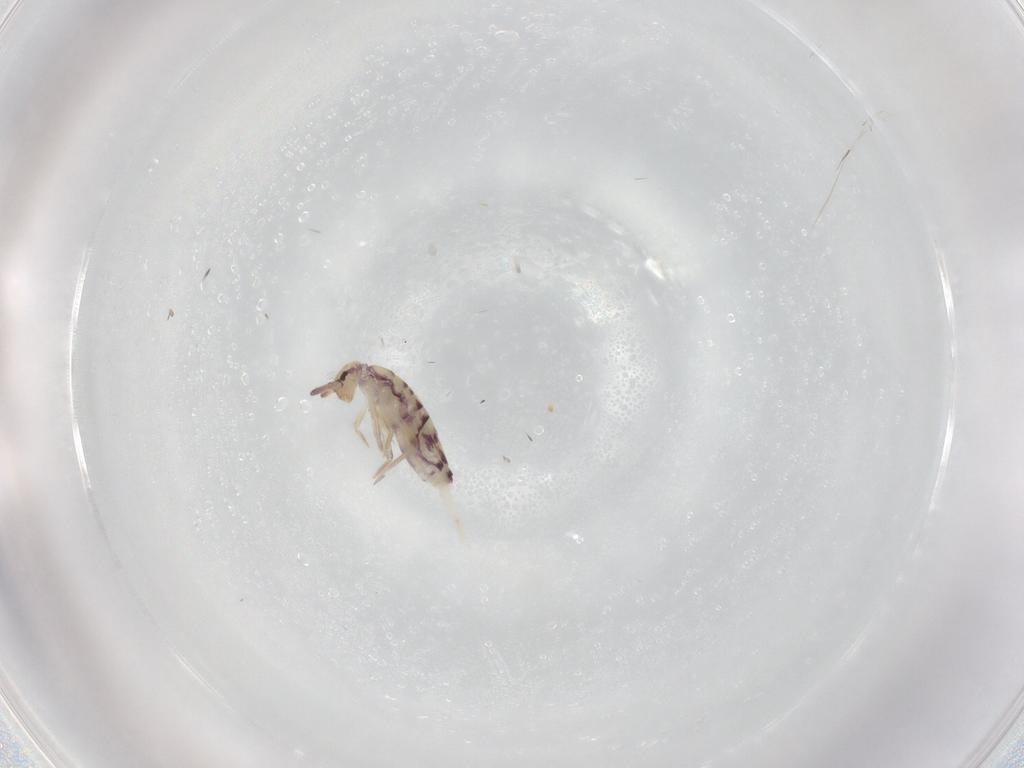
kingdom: Animalia
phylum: Arthropoda
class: Collembola
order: Entomobryomorpha
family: Entomobryidae
